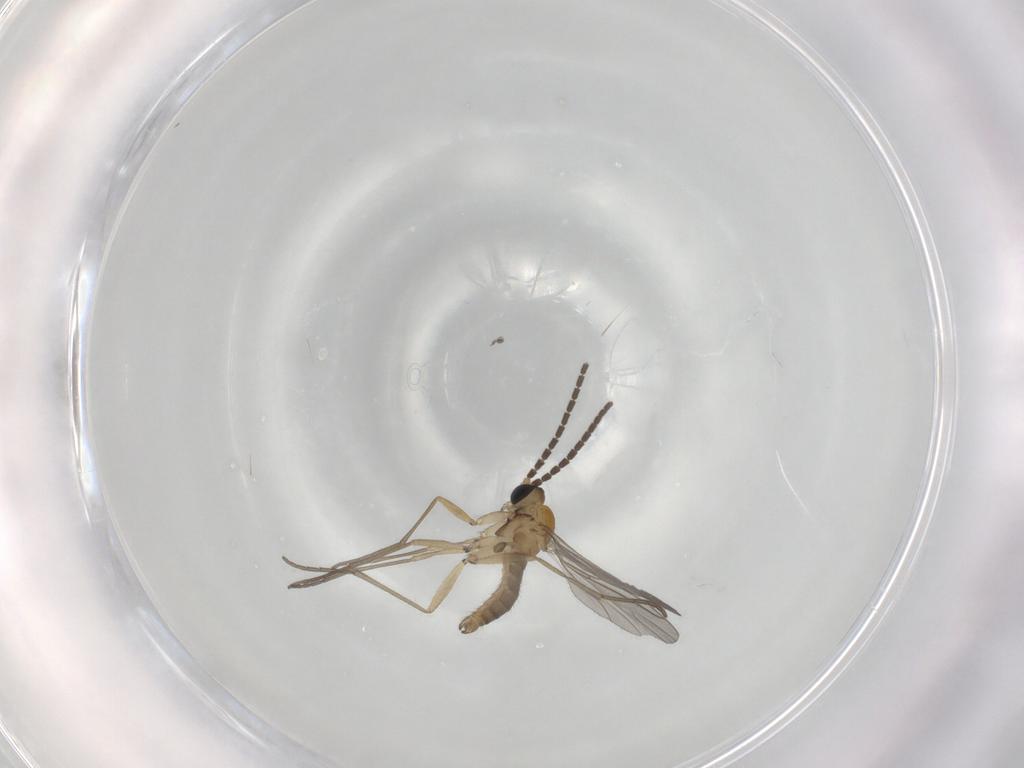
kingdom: Animalia
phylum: Arthropoda
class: Insecta
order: Diptera
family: Sciaridae
